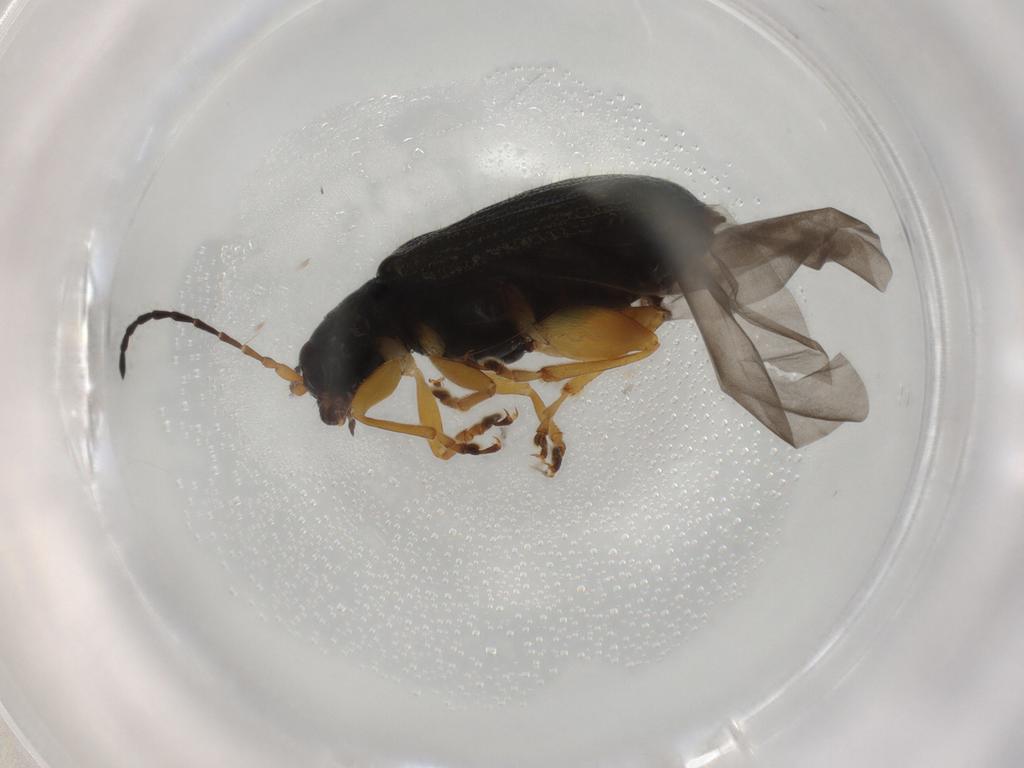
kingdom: Animalia
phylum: Arthropoda
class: Insecta
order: Coleoptera
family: Chrysomelidae
